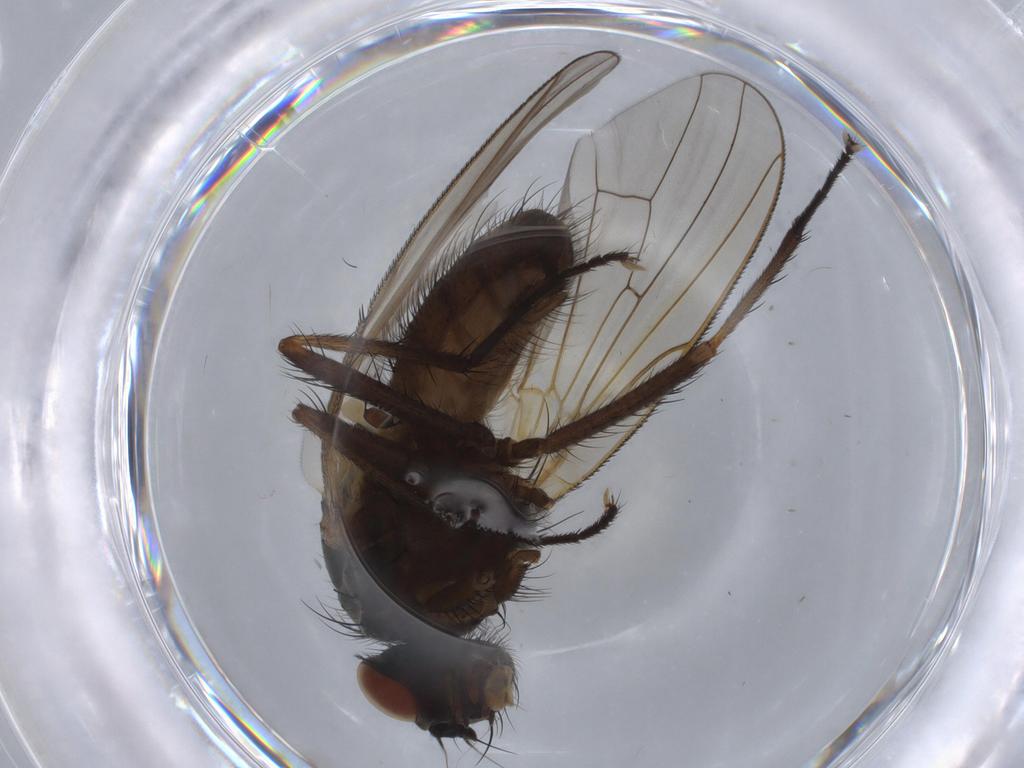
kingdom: Animalia
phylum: Arthropoda
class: Insecta
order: Diptera
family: Anthomyiidae
